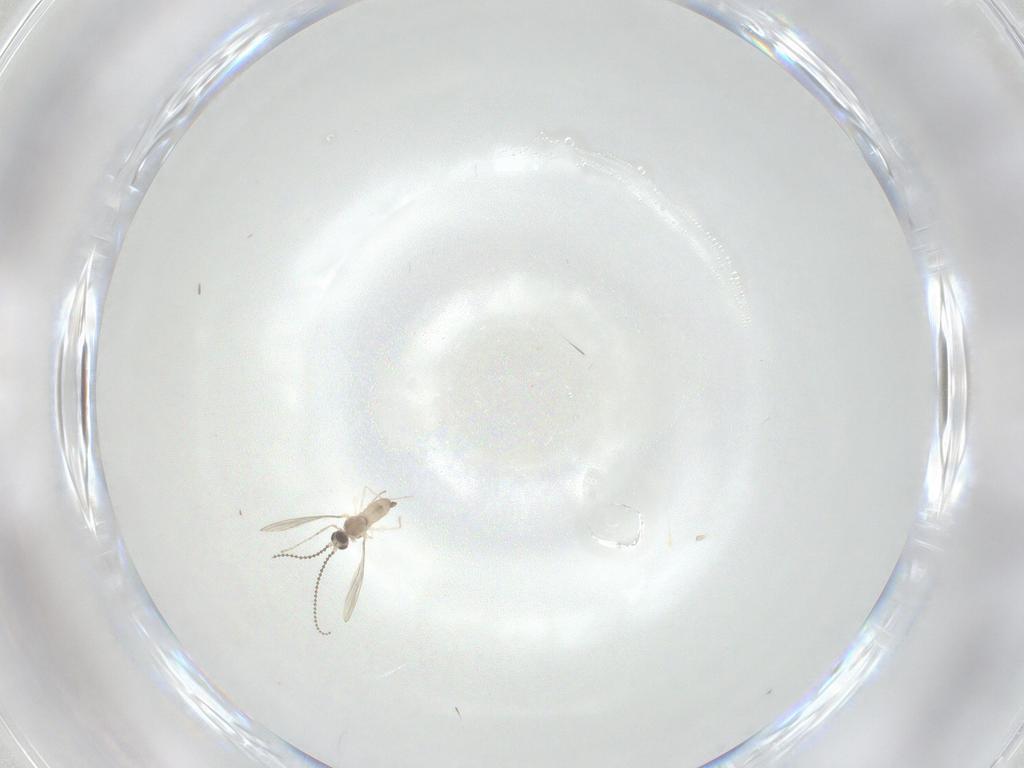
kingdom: Animalia
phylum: Arthropoda
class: Insecta
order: Diptera
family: Cecidomyiidae
